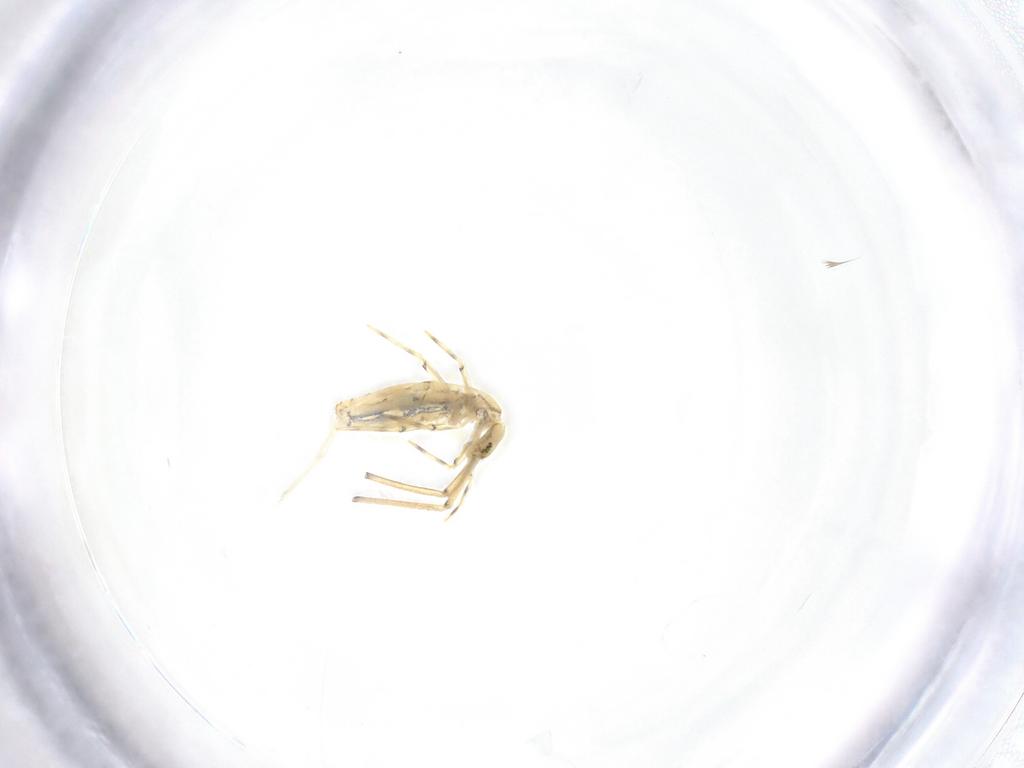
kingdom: Animalia
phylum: Arthropoda
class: Collembola
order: Entomobryomorpha
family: Paronellidae
